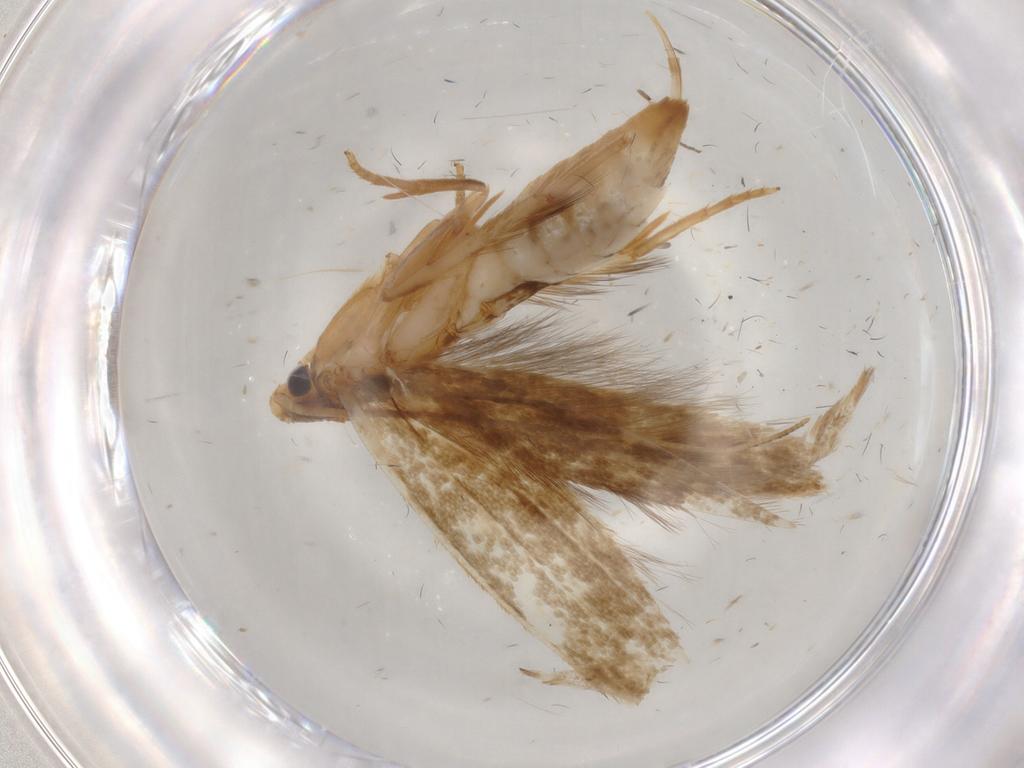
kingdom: Animalia
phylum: Arthropoda
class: Insecta
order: Lepidoptera
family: Tineidae
